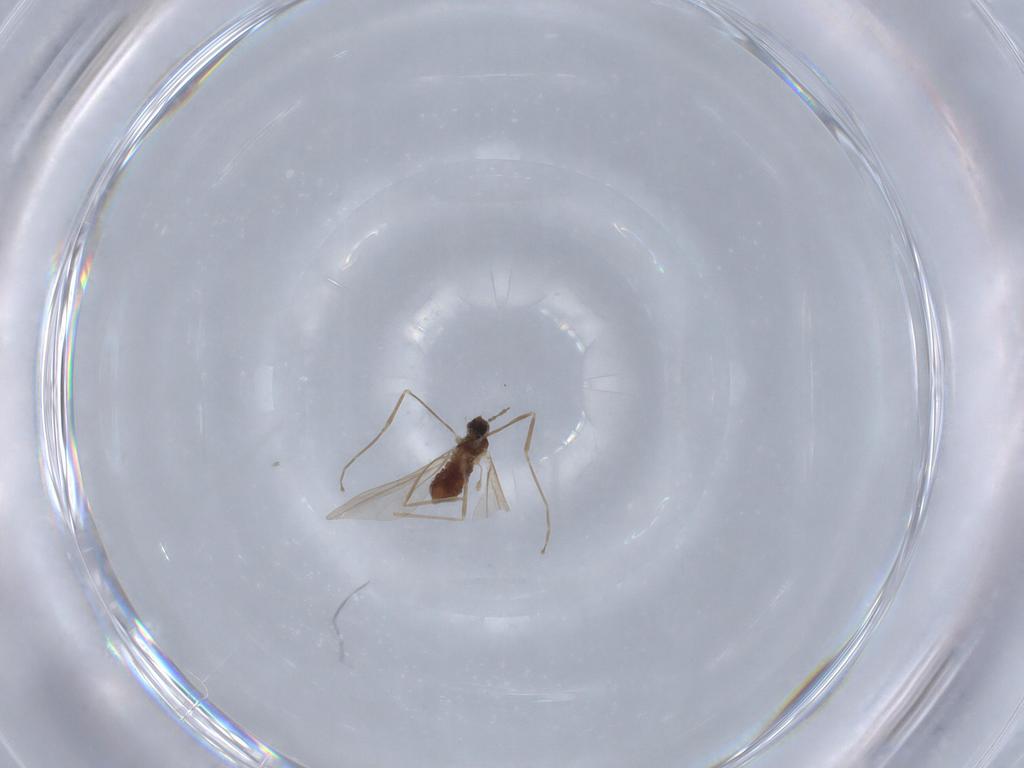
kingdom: Animalia
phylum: Arthropoda
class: Insecta
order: Diptera
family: Cecidomyiidae
